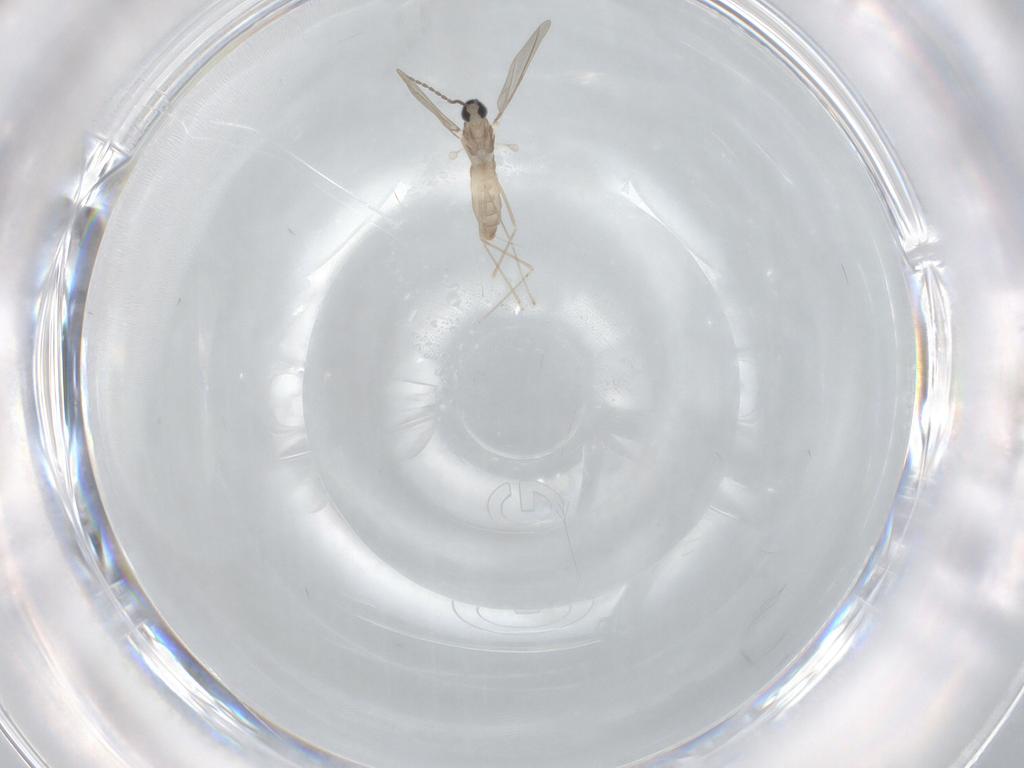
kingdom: Animalia
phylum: Arthropoda
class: Insecta
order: Diptera
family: Cecidomyiidae
